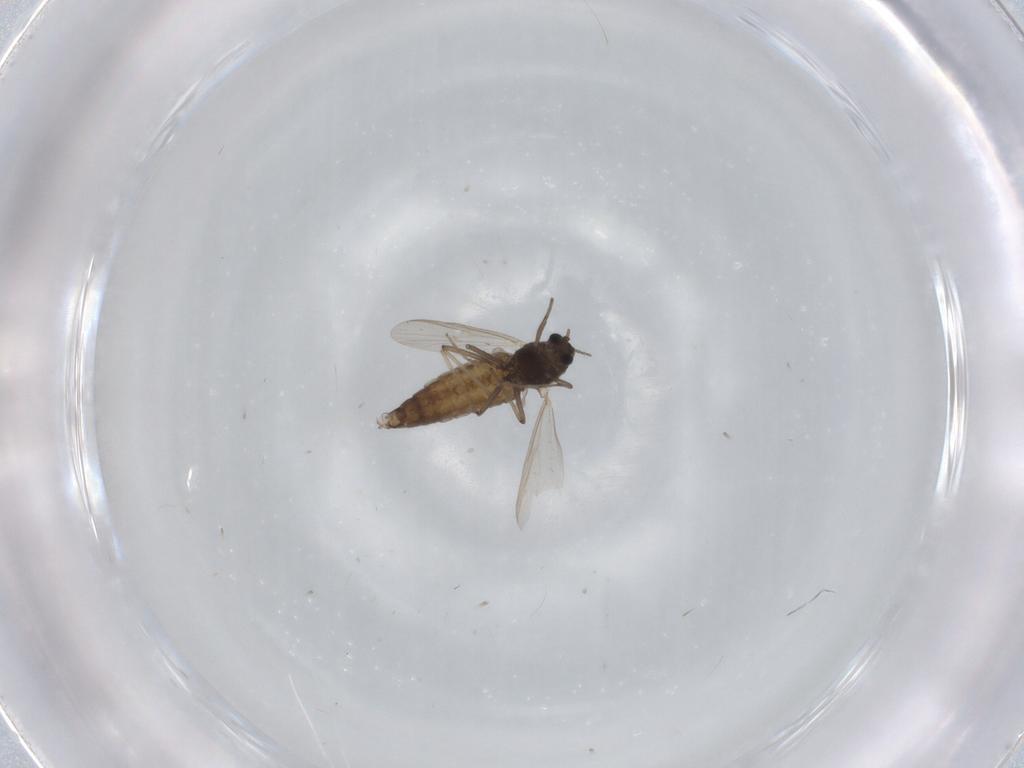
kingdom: Animalia
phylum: Arthropoda
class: Insecta
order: Diptera
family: Chironomidae
